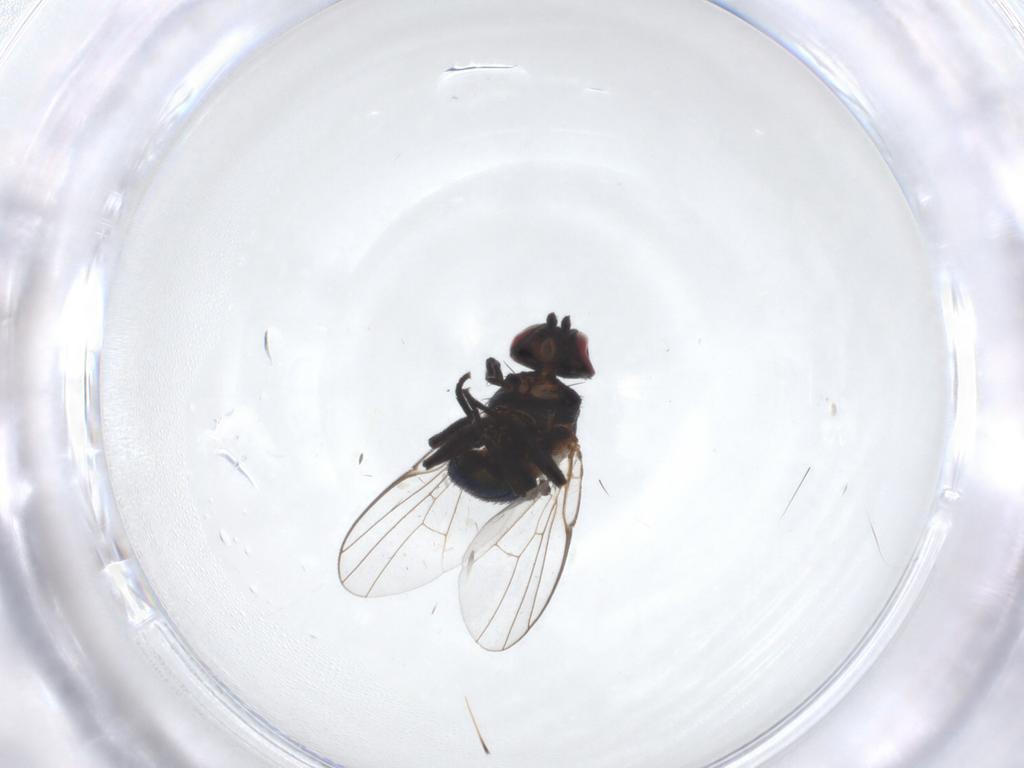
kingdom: Animalia
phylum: Arthropoda
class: Insecta
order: Diptera
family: Agromyzidae
